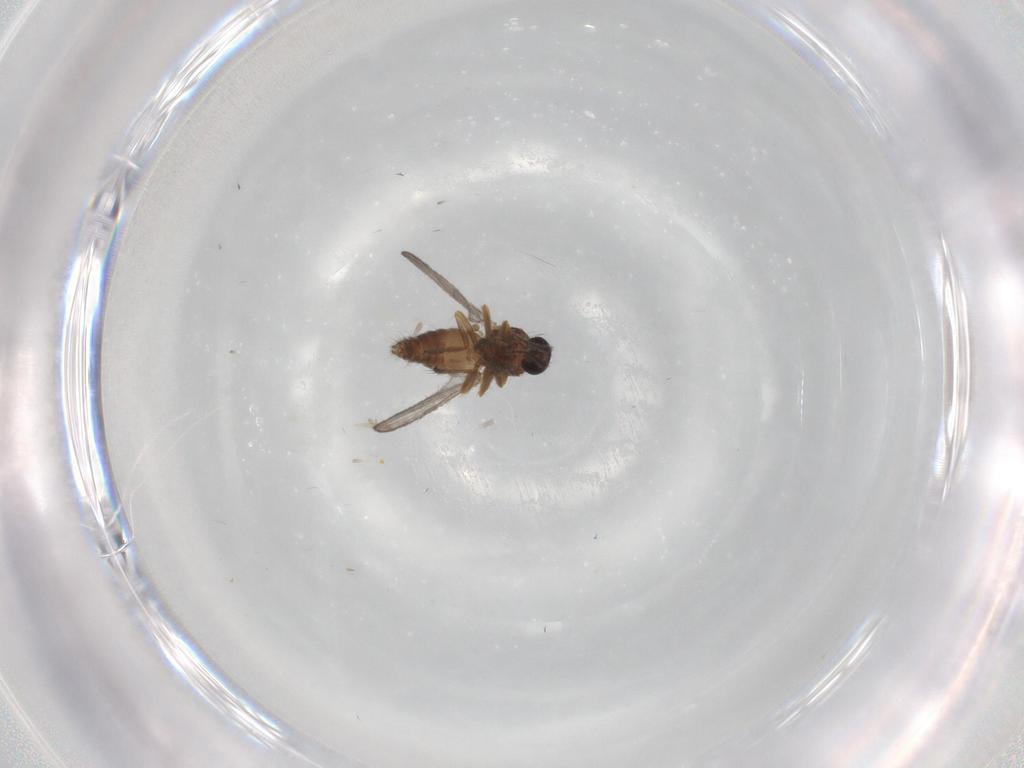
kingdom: Animalia
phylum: Arthropoda
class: Insecta
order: Diptera
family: Ceratopogonidae
